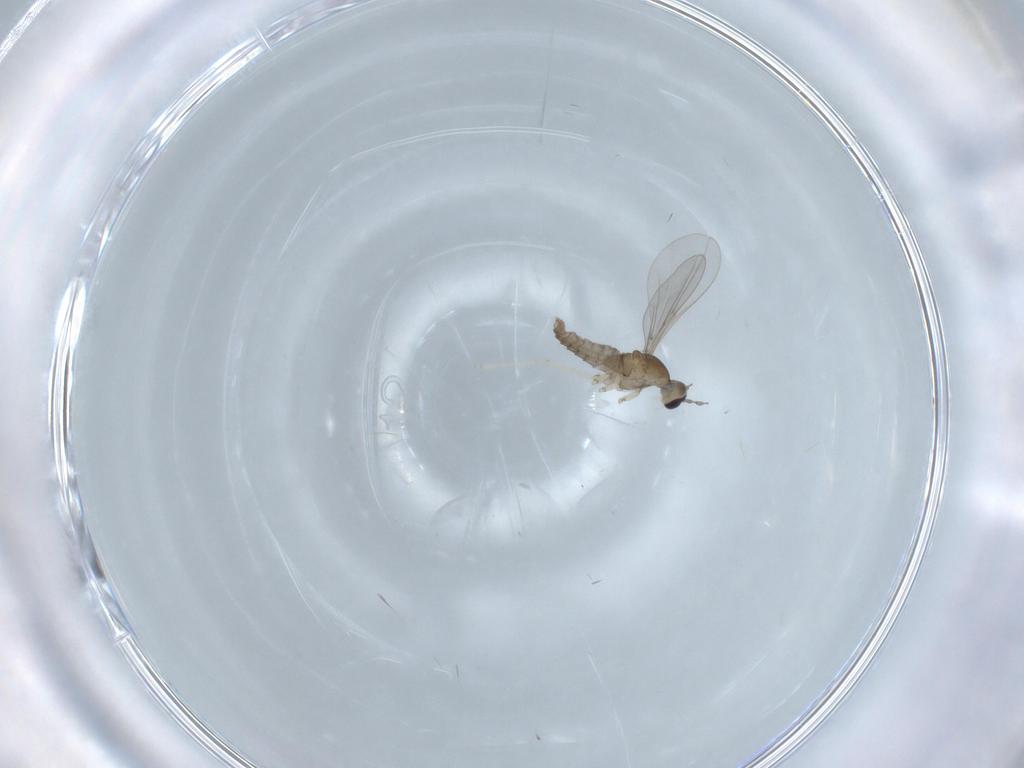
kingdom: Animalia
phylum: Arthropoda
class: Insecta
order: Diptera
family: Cecidomyiidae
